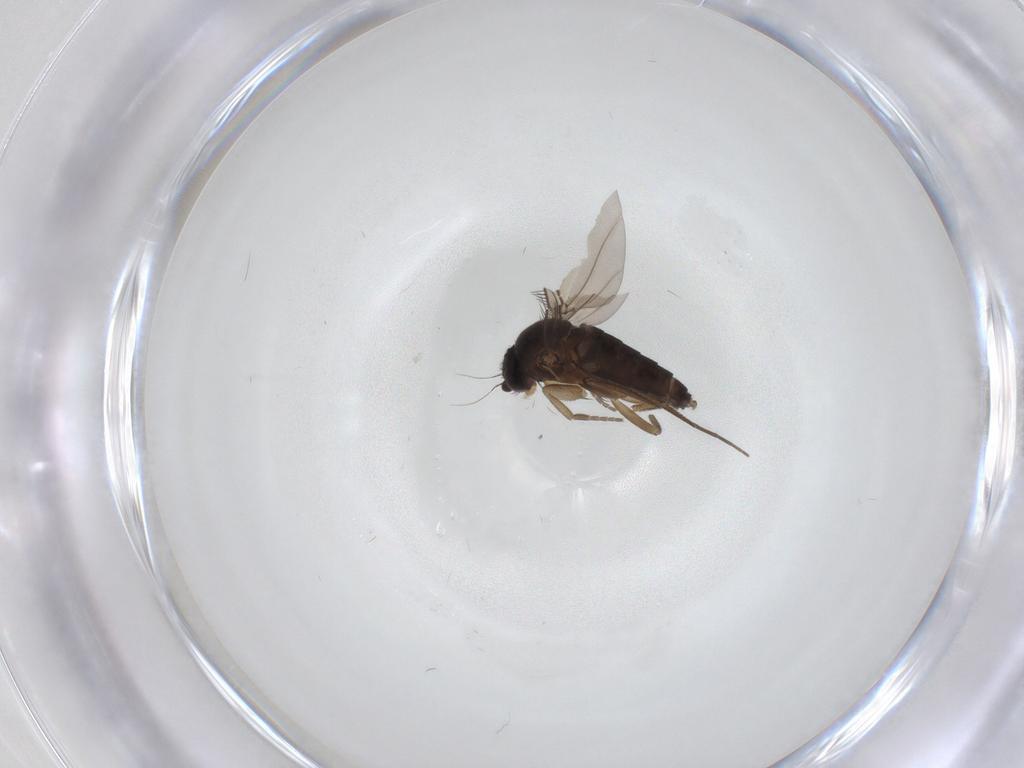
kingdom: Animalia
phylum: Arthropoda
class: Insecta
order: Diptera
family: Phoridae
